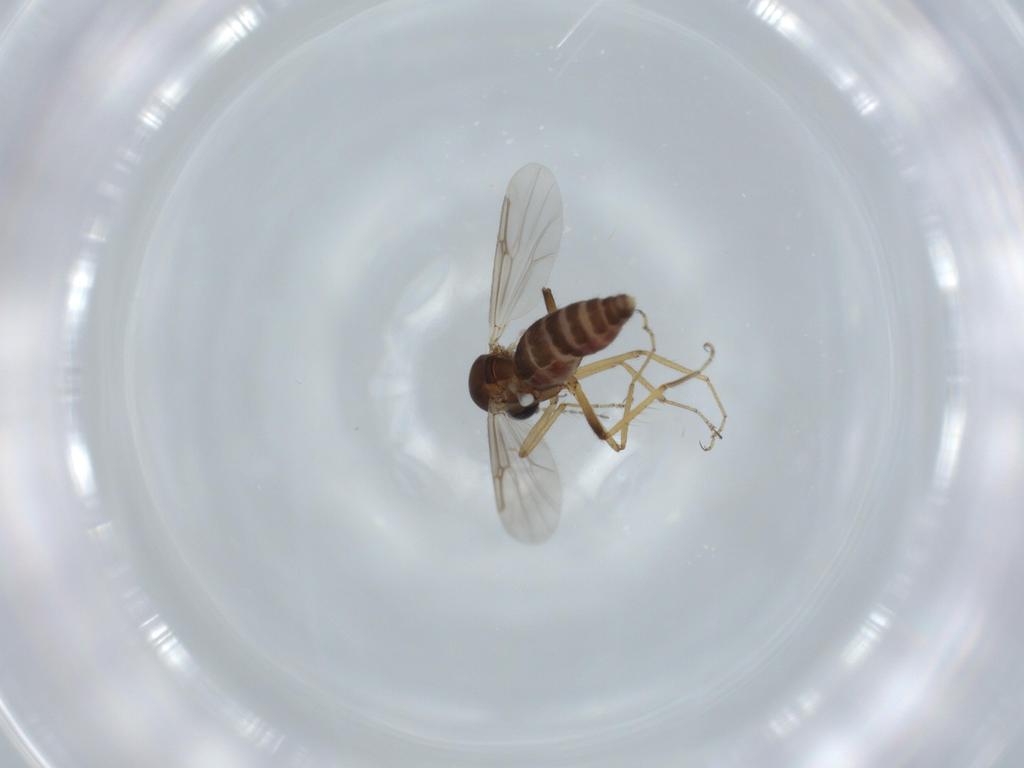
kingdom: Animalia
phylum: Arthropoda
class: Insecta
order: Diptera
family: Ceratopogonidae
